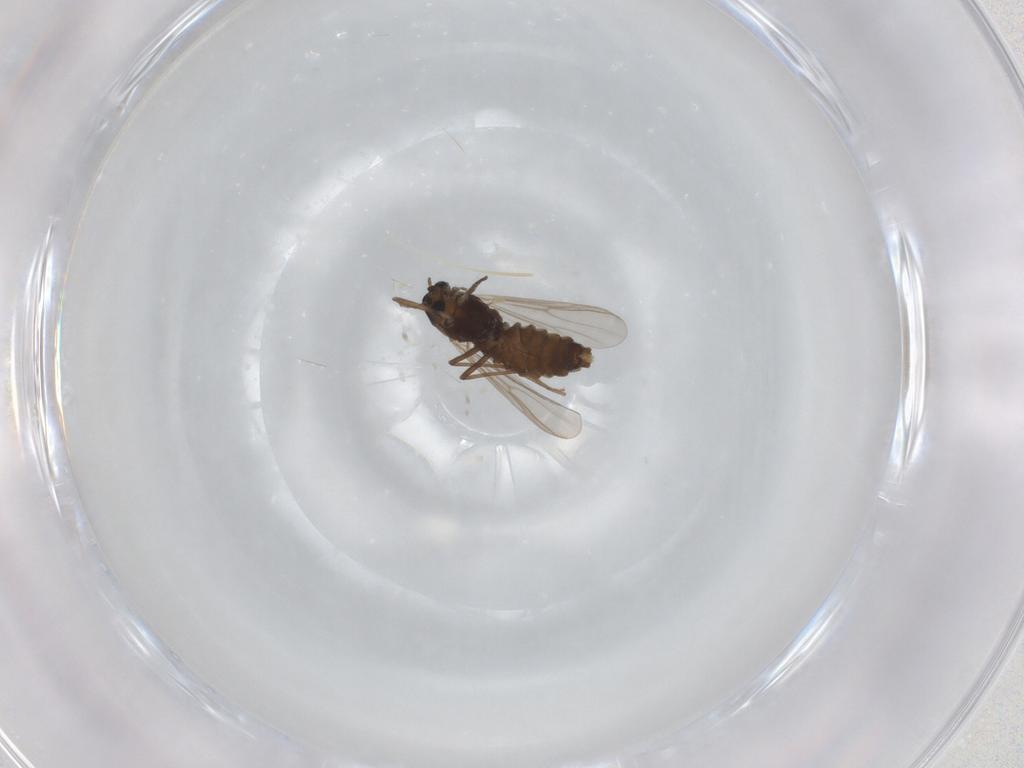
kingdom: Animalia
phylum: Arthropoda
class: Insecta
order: Diptera
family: Chironomidae
